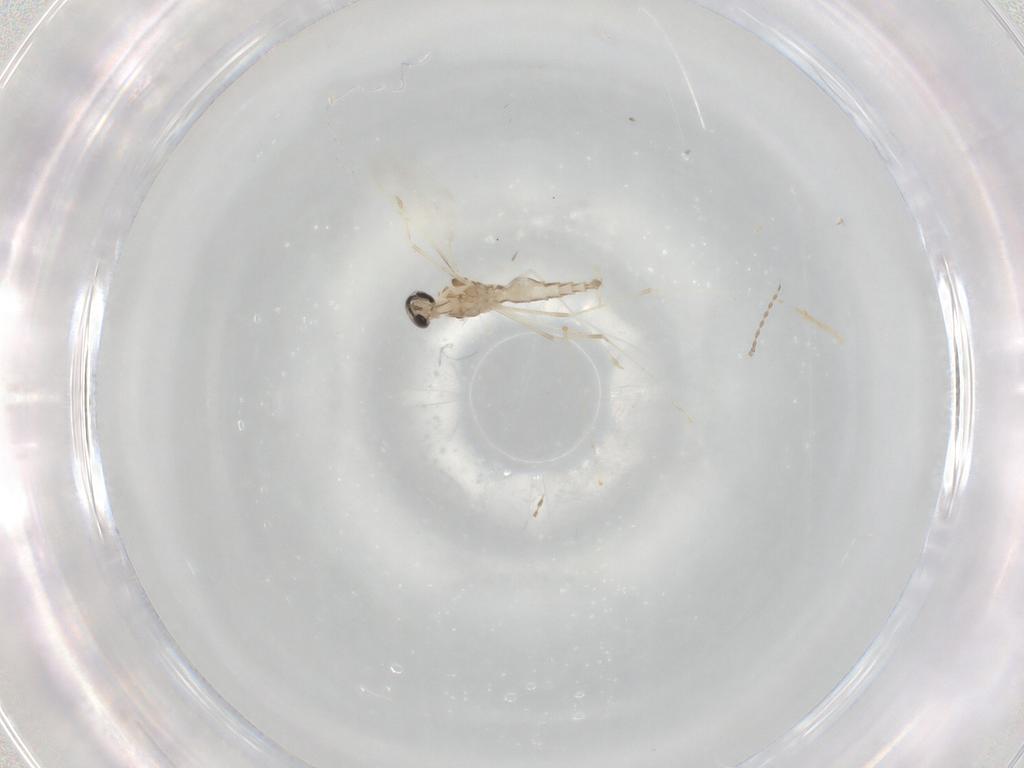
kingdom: Animalia
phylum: Arthropoda
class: Insecta
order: Diptera
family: Cecidomyiidae
